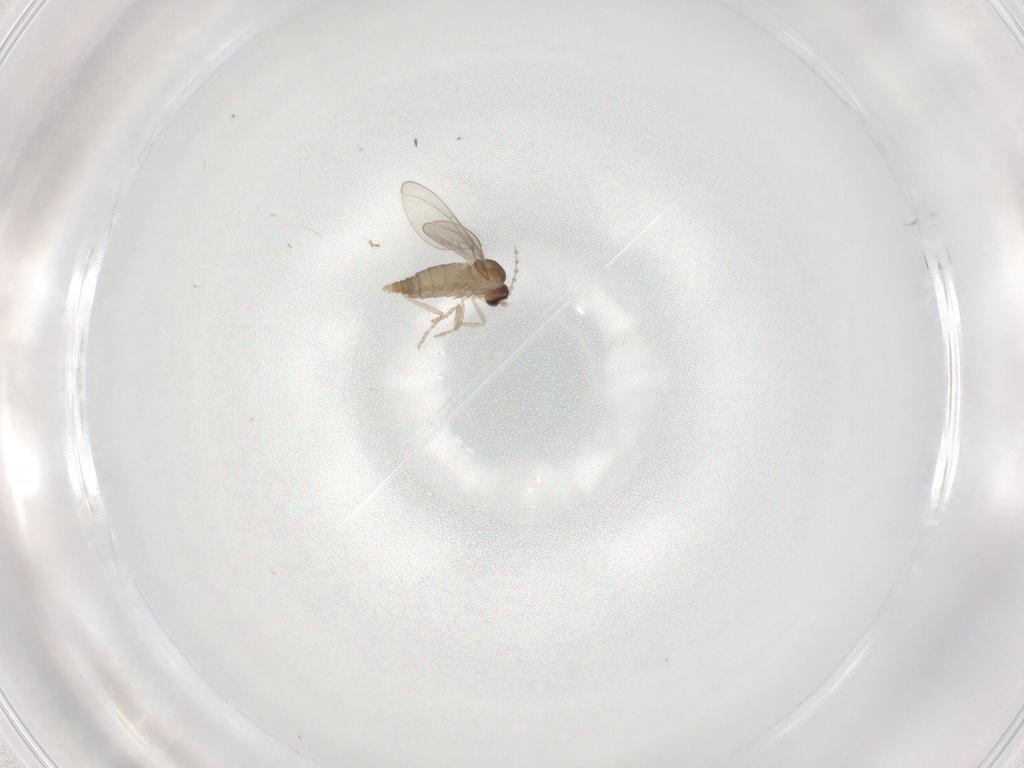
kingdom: Animalia
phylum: Arthropoda
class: Insecta
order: Diptera
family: Cecidomyiidae
